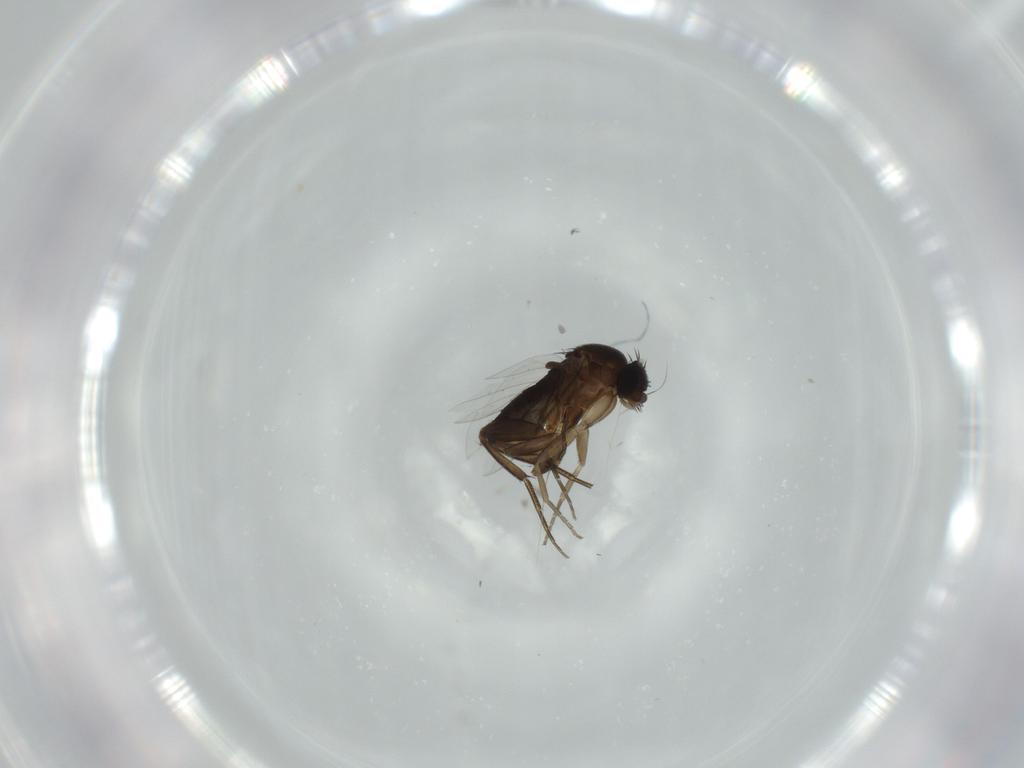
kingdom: Animalia
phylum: Arthropoda
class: Insecta
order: Diptera
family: Phoridae
